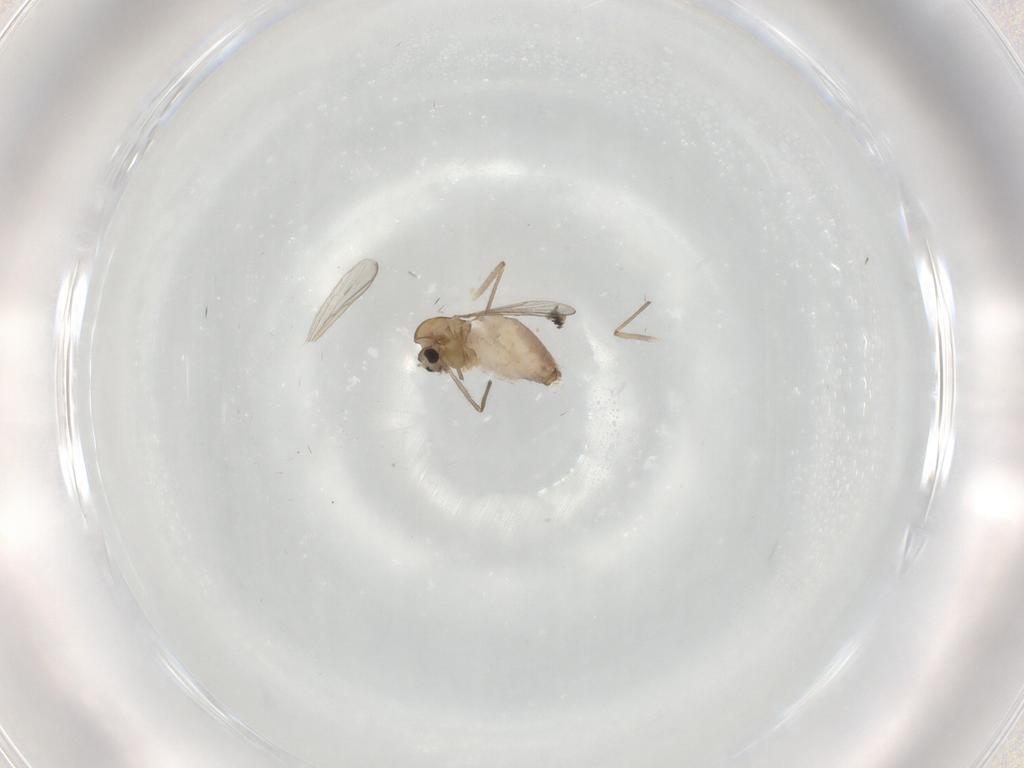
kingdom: Animalia
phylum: Arthropoda
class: Insecta
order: Diptera
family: Chironomidae
